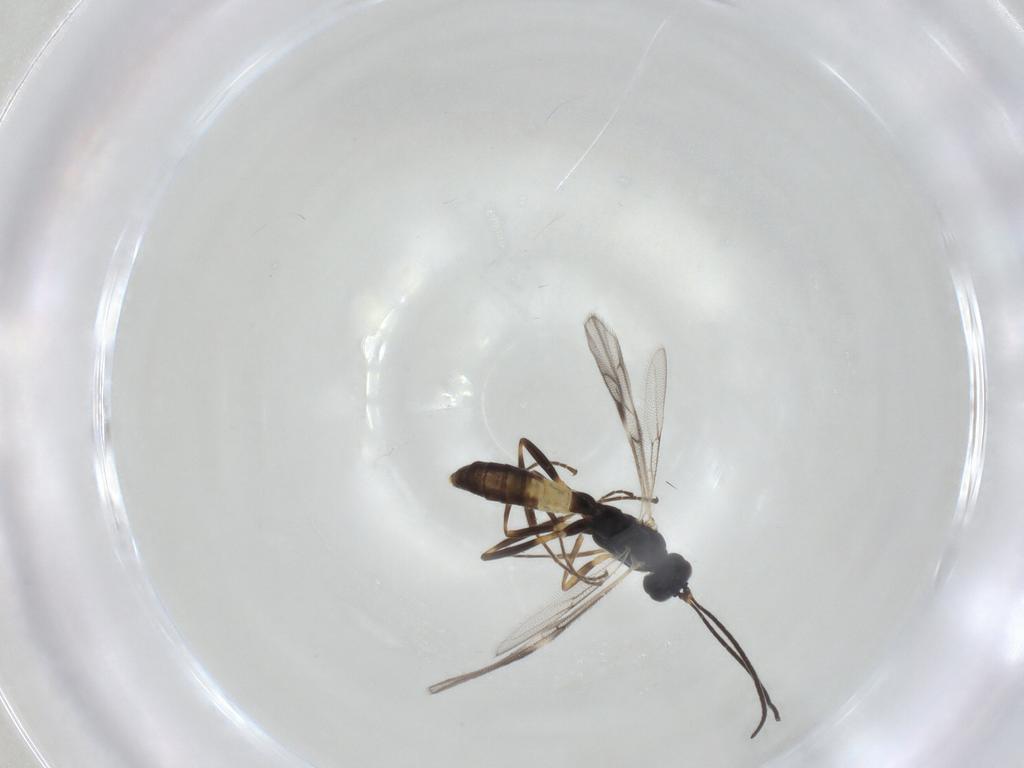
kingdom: Animalia
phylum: Arthropoda
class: Insecta
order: Hymenoptera
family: Ichneumonidae
